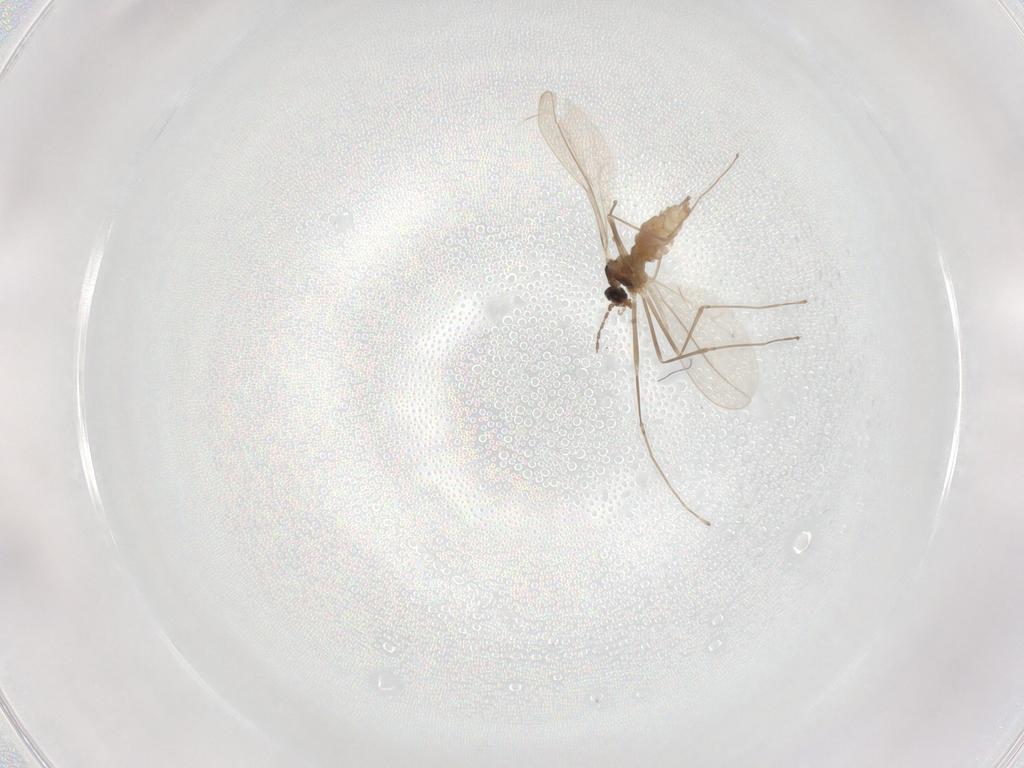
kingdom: Animalia
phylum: Arthropoda
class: Insecta
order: Diptera
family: Cecidomyiidae
